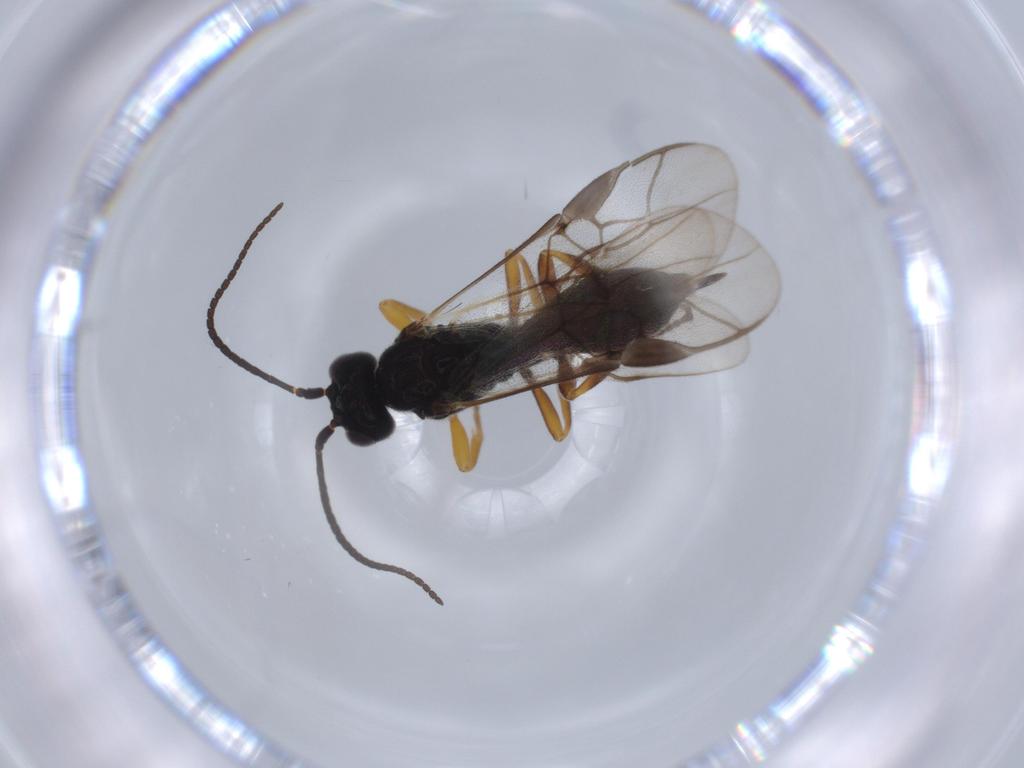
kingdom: Animalia
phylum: Arthropoda
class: Insecta
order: Hymenoptera
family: Braconidae
